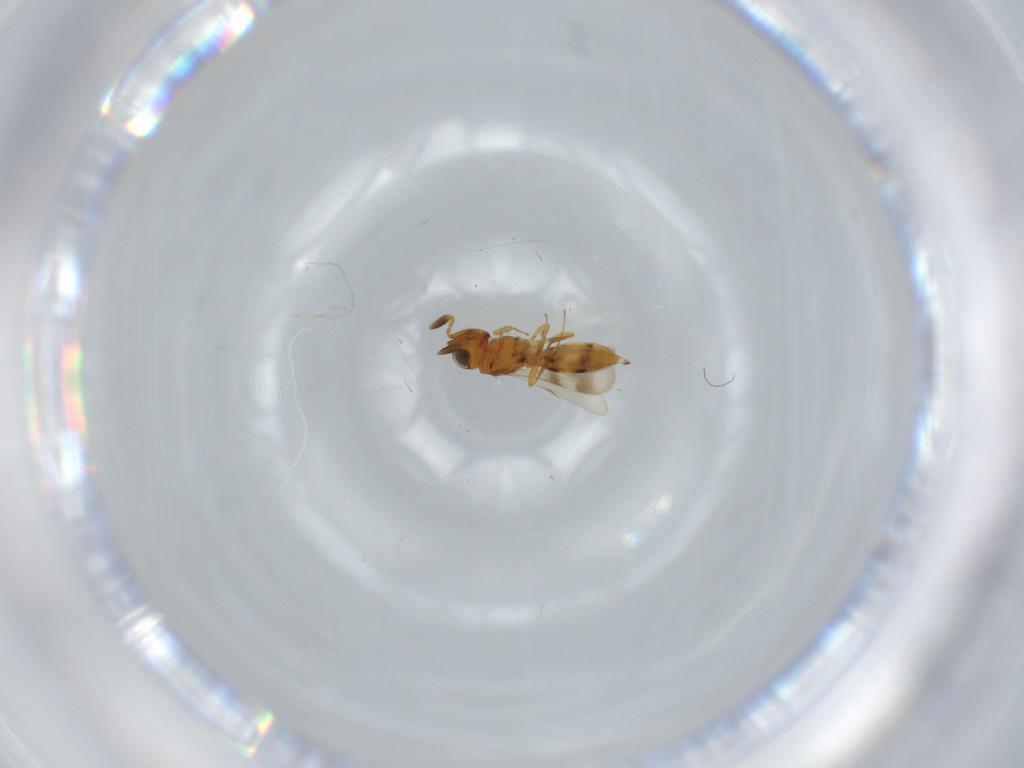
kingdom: Animalia
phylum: Arthropoda
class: Insecta
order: Hymenoptera
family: Scelionidae
